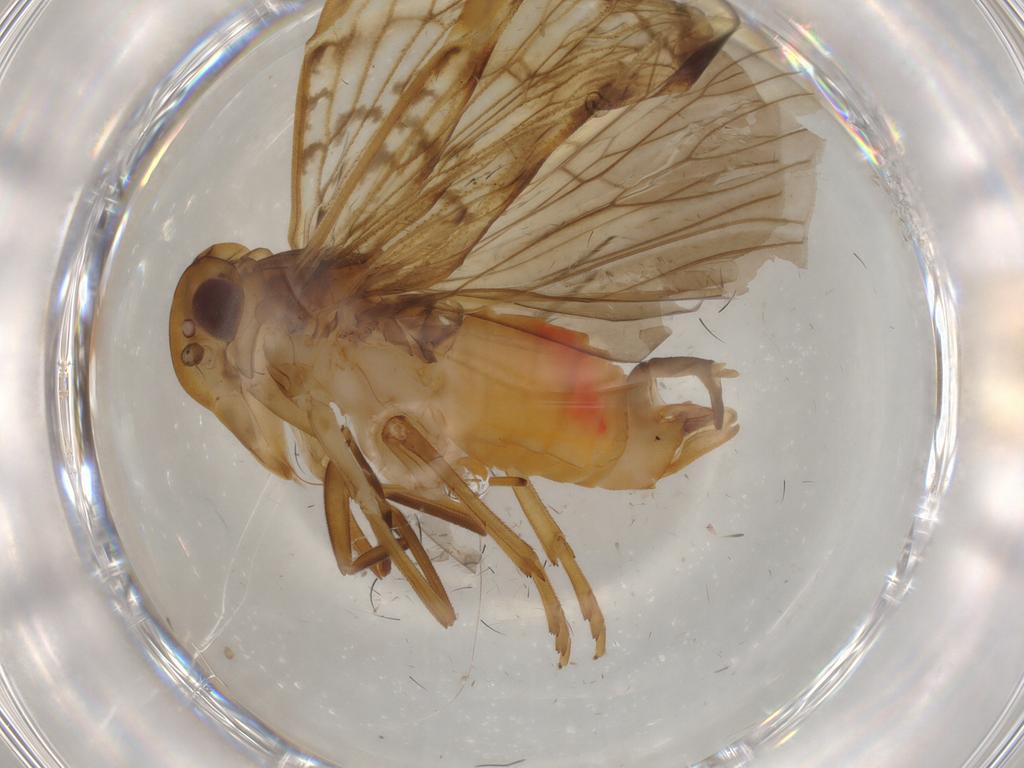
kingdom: Animalia
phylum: Arthropoda
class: Insecta
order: Hemiptera
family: Cixiidae
